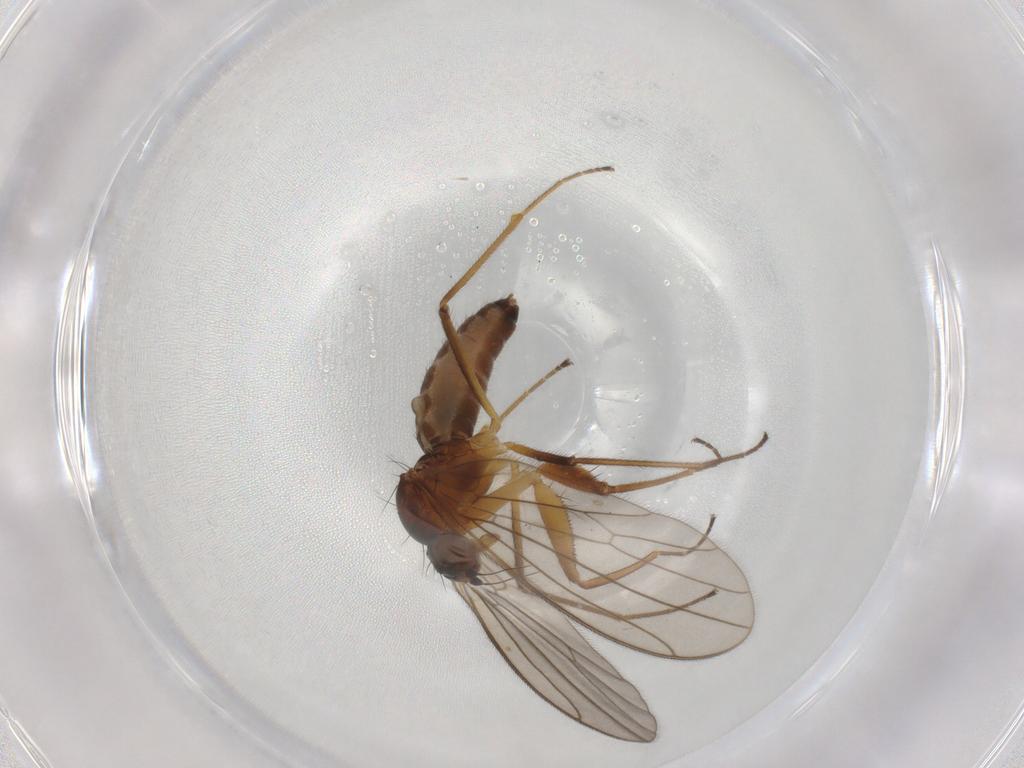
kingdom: Animalia
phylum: Arthropoda
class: Insecta
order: Diptera
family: Empididae
